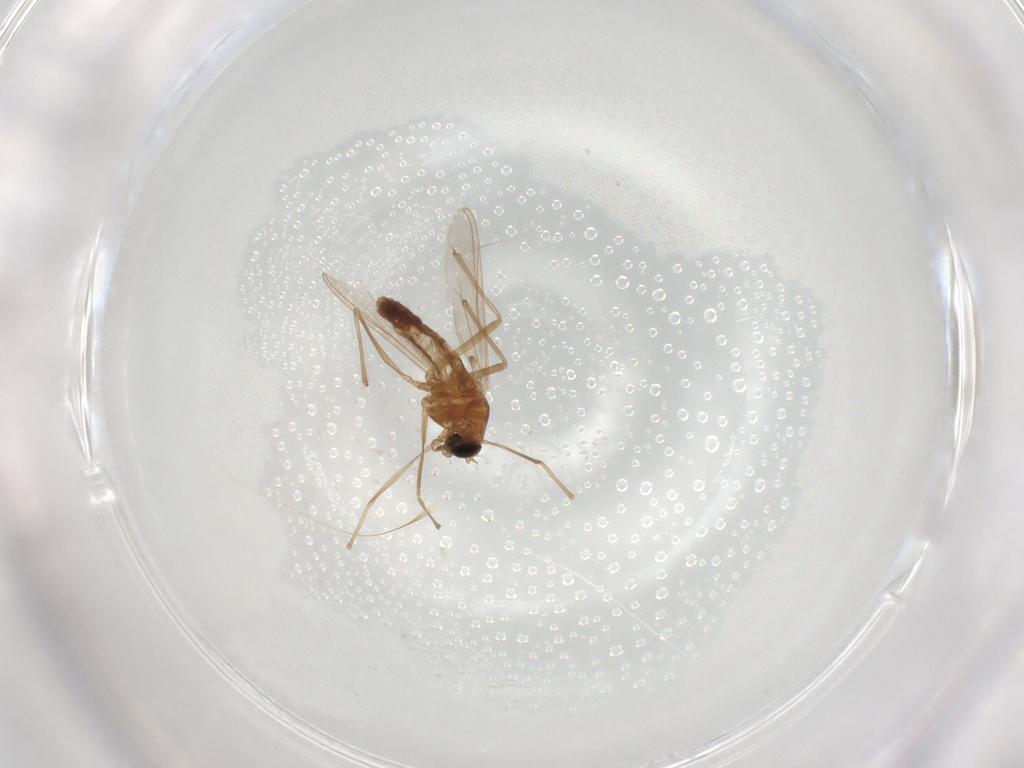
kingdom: Animalia
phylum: Arthropoda
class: Insecta
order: Diptera
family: Chironomidae
